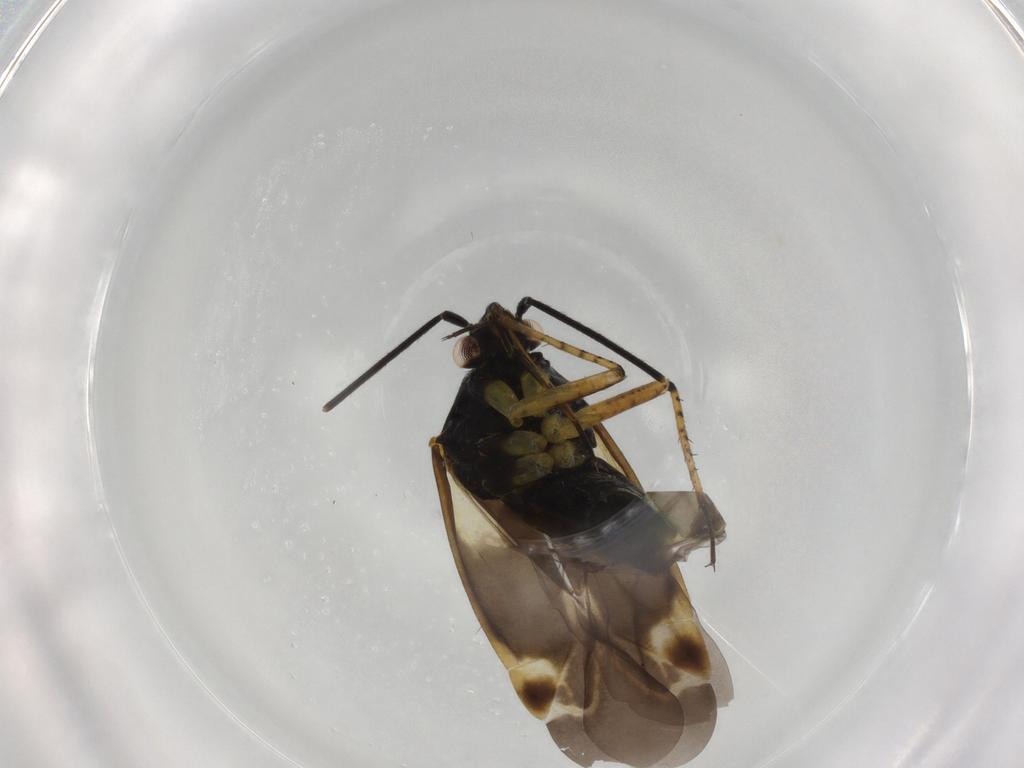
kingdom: Animalia
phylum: Arthropoda
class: Insecta
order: Hemiptera
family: Miridae
